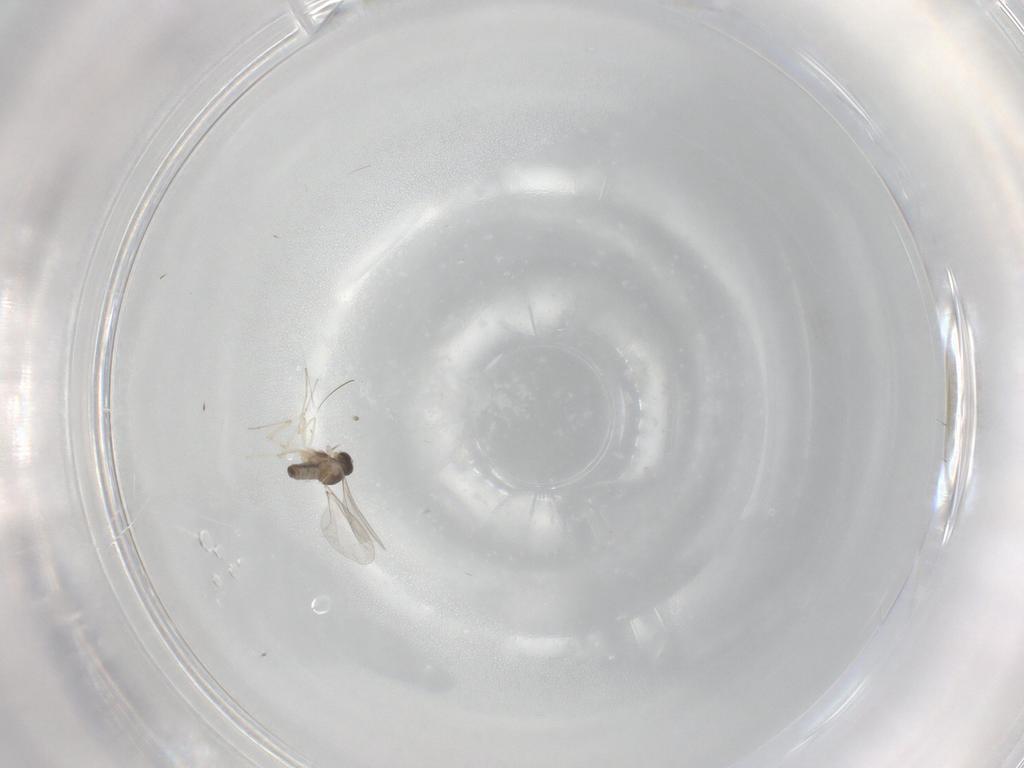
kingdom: Animalia
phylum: Arthropoda
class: Insecta
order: Diptera
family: Cecidomyiidae
